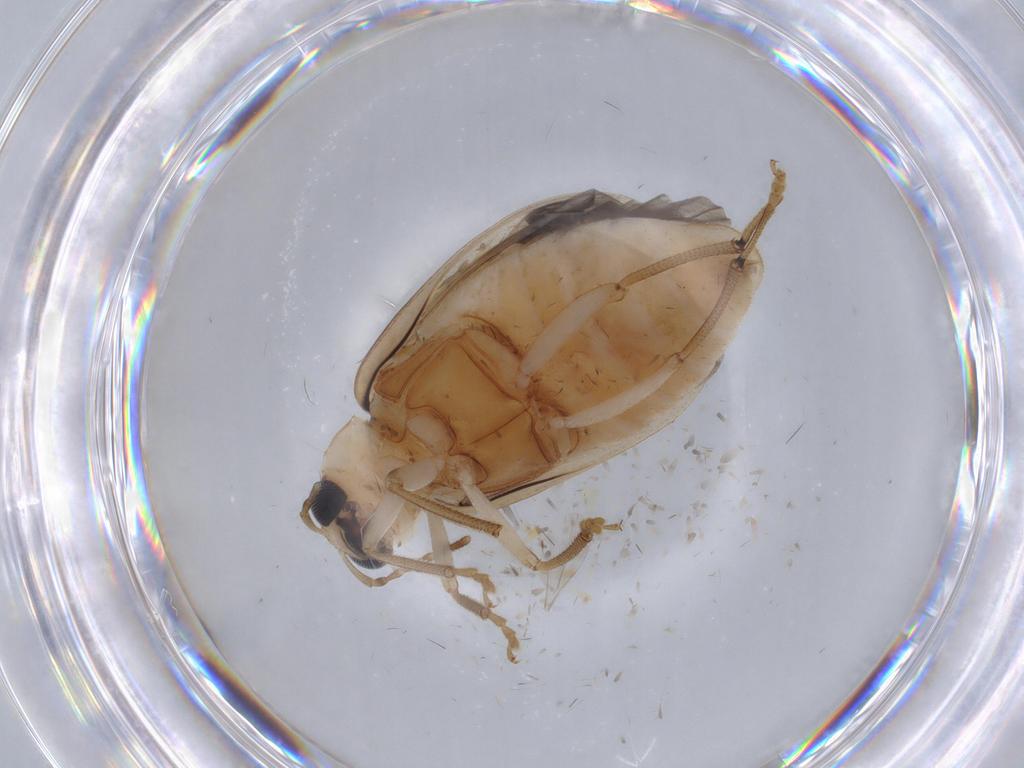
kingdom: Animalia
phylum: Arthropoda
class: Insecta
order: Coleoptera
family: Chrysomelidae
